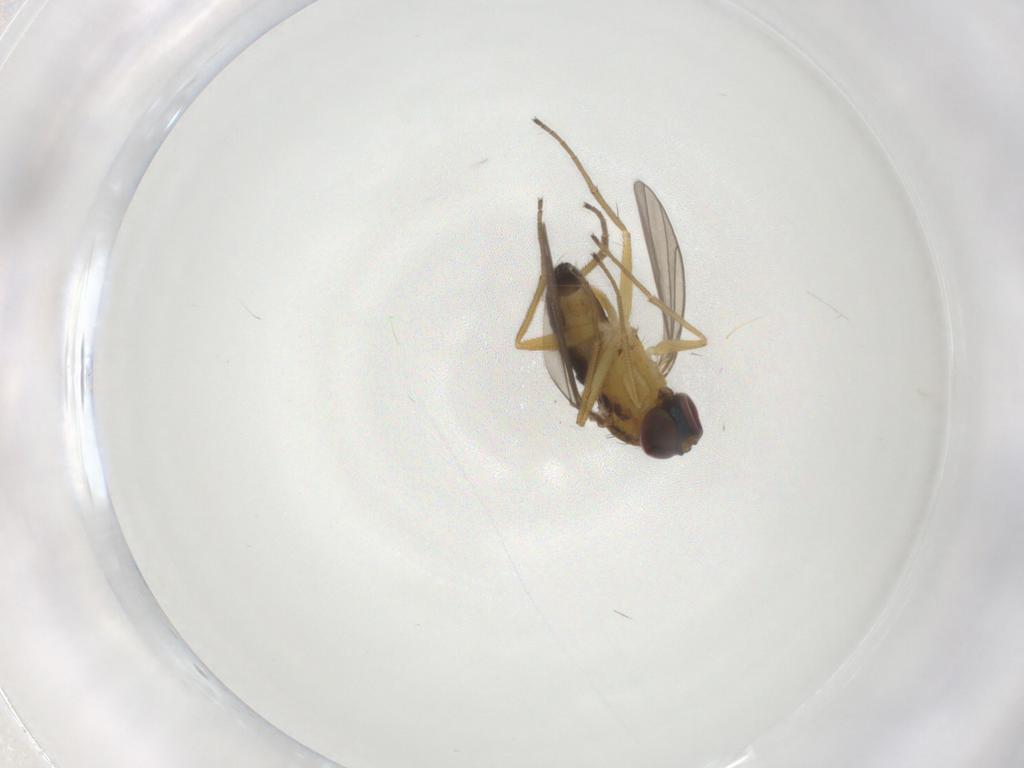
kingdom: Animalia
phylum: Arthropoda
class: Insecta
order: Diptera
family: Dolichopodidae
